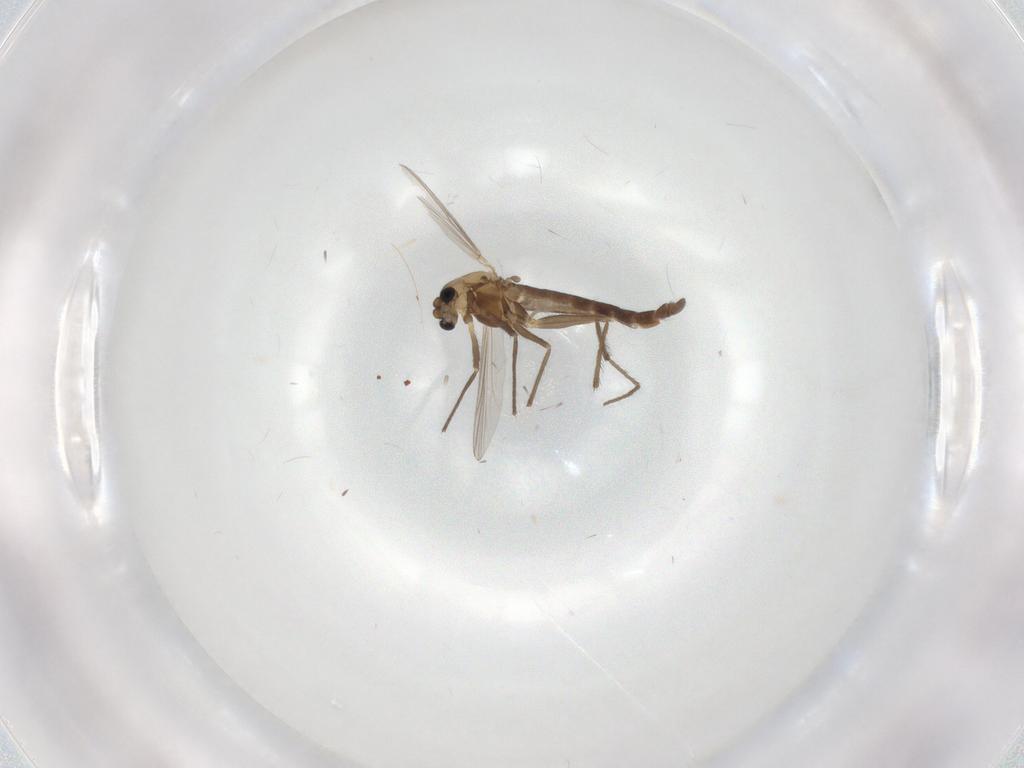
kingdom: Animalia
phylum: Arthropoda
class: Insecta
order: Diptera
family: Chironomidae
